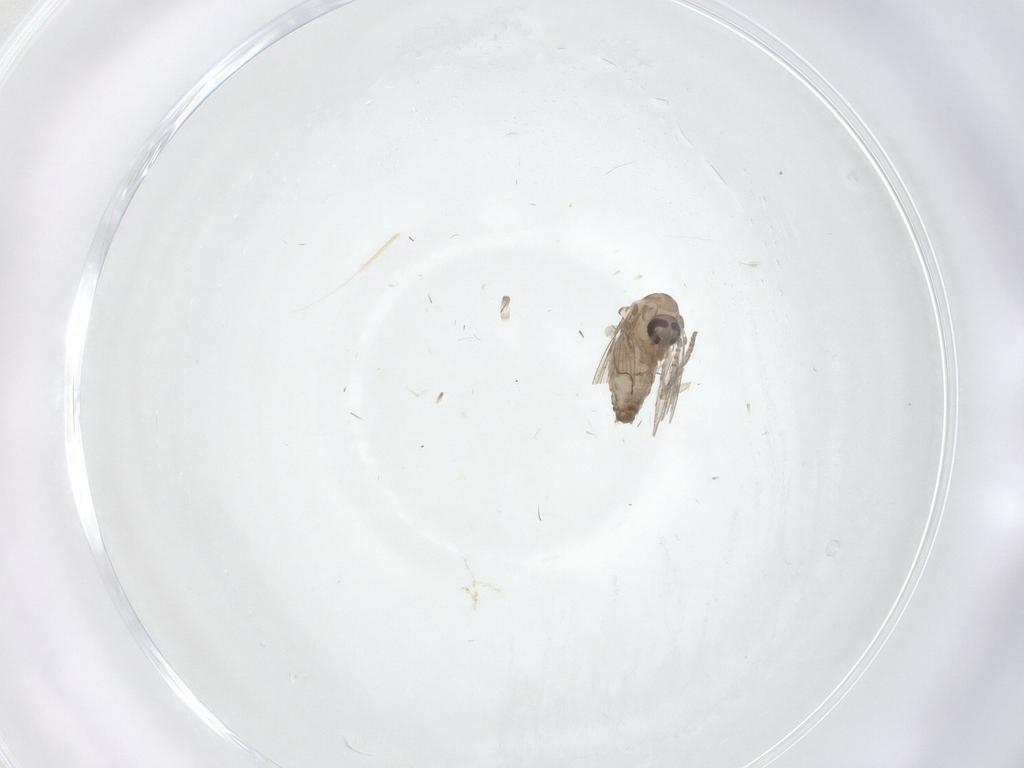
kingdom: Animalia
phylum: Arthropoda
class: Insecta
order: Diptera
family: Psychodidae
